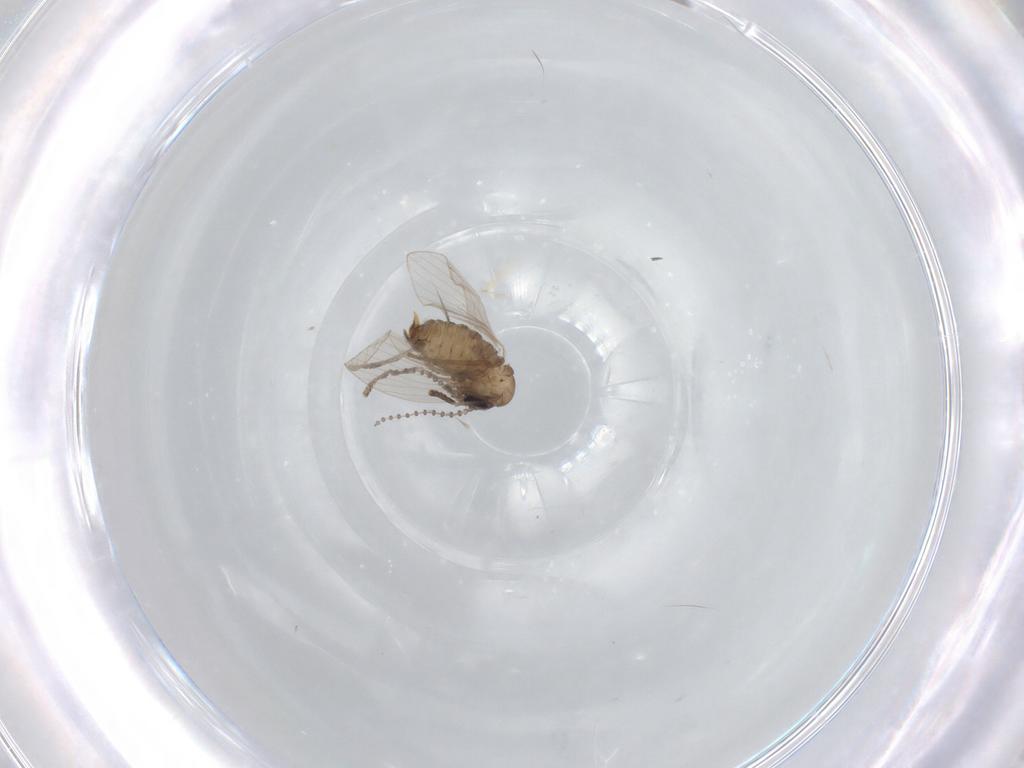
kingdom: Animalia
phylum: Arthropoda
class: Insecta
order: Diptera
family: Psychodidae
